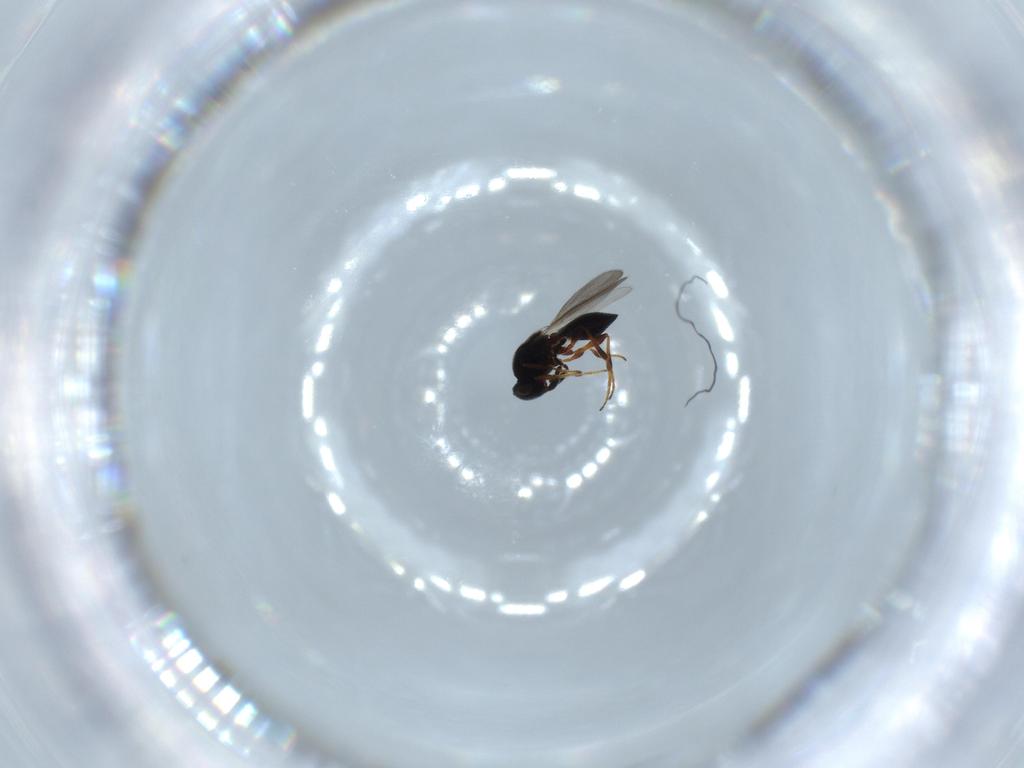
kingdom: Animalia
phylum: Arthropoda
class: Insecta
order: Hymenoptera
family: Platygastridae
